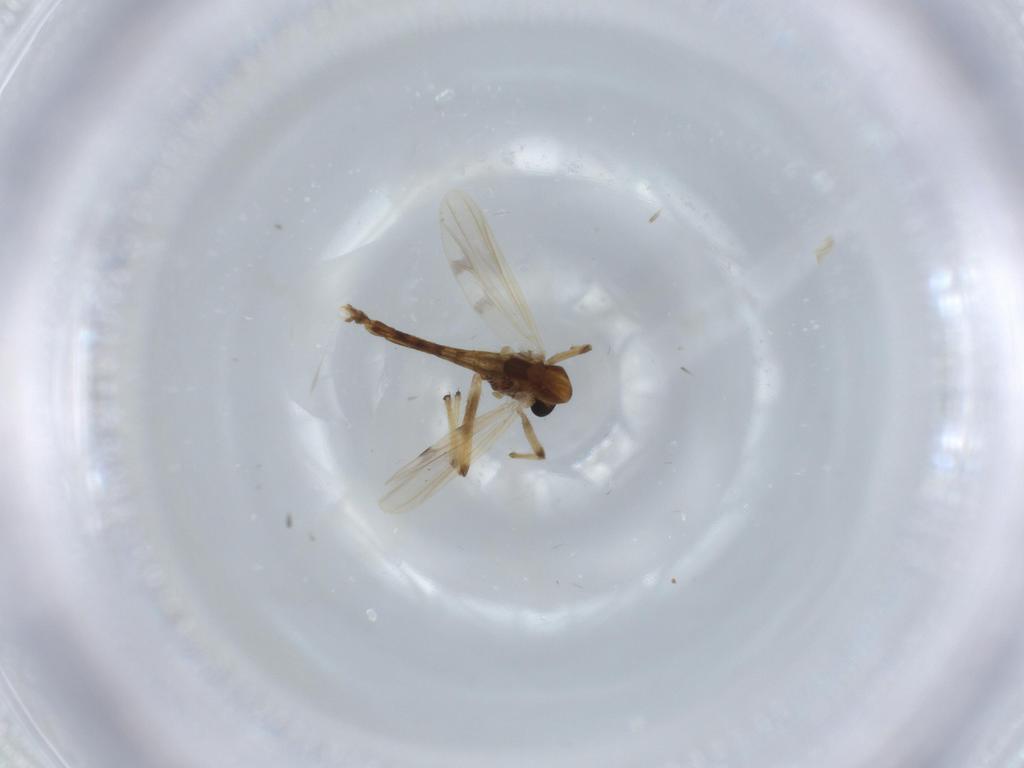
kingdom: Animalia
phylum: Arthropoda
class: Insecta
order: Diptera
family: Chironomidae
